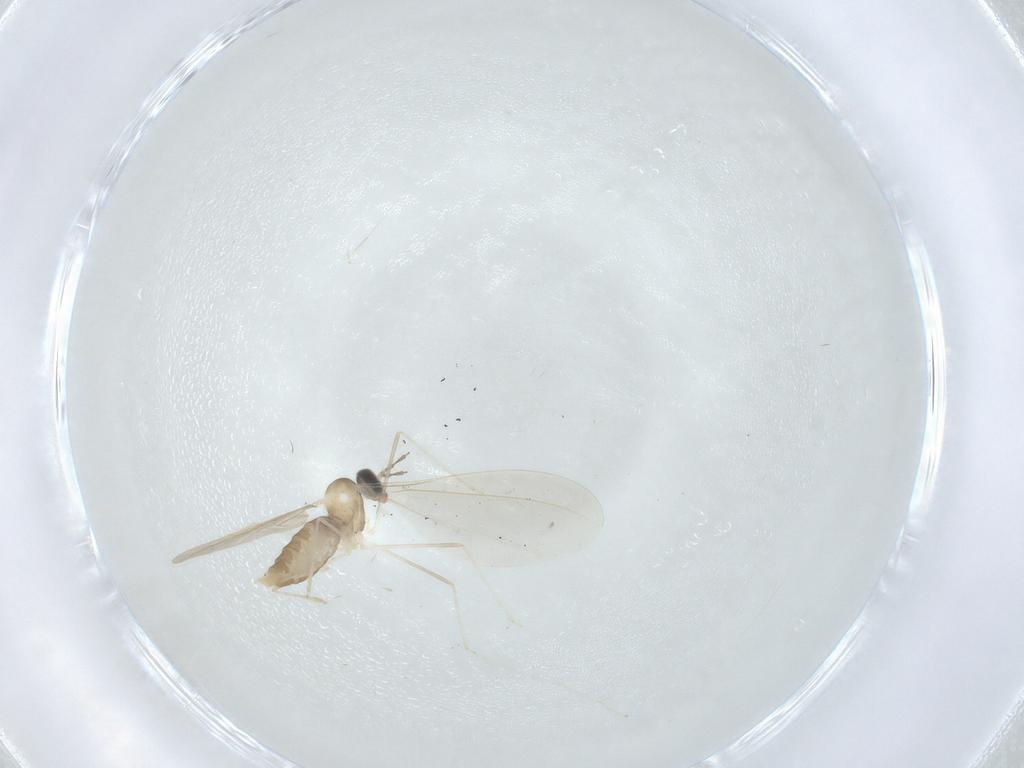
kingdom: Animalia
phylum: Arthropoda
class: Insecta
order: Diptera
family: Cecidomyiidae
